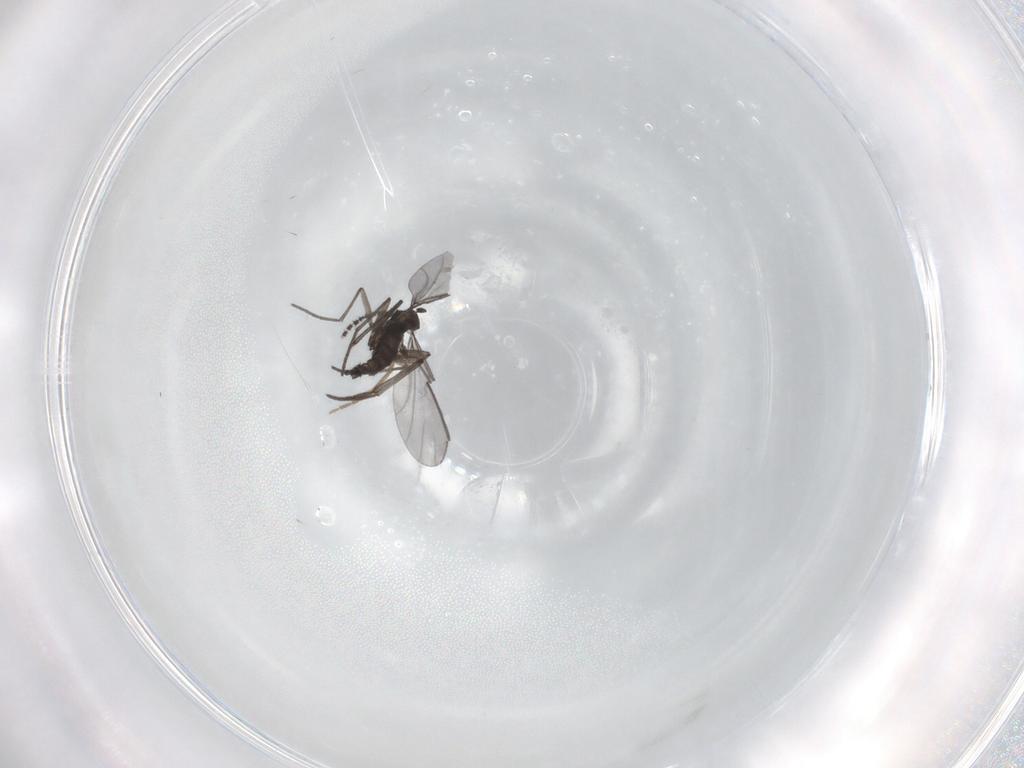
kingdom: Animalia
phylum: Arthropoda
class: Insecta
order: Diptera
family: Chironomidae
